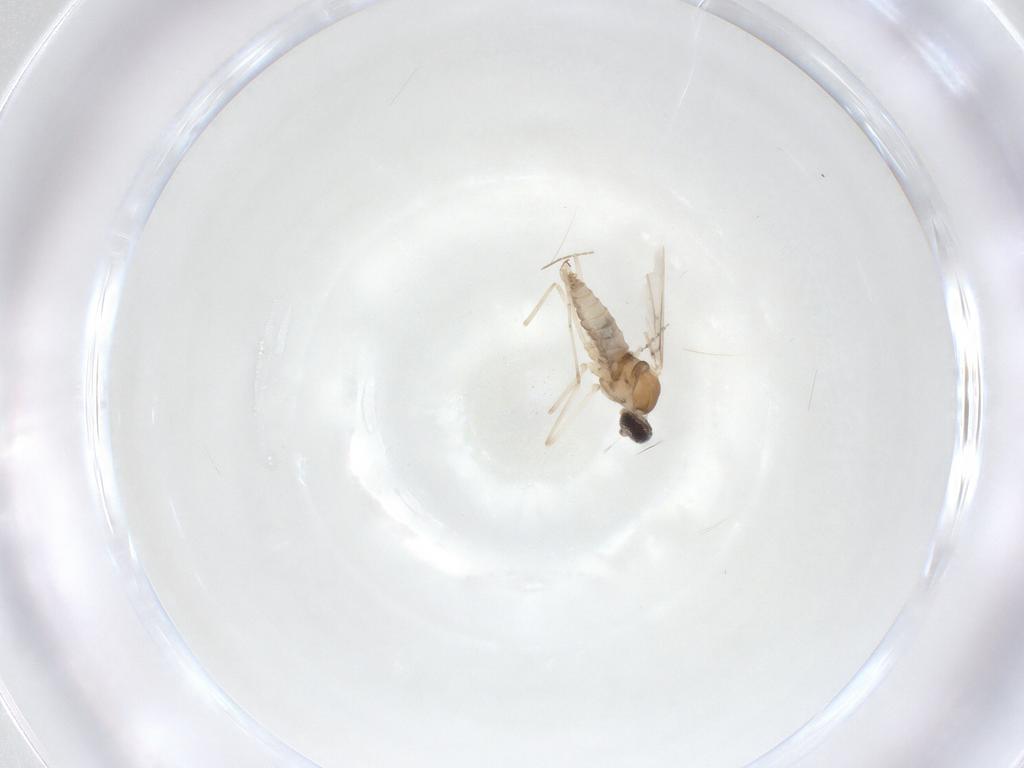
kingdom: Animalia
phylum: Arthropoda
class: Insecta
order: Diptera
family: Cecidomyiidae
